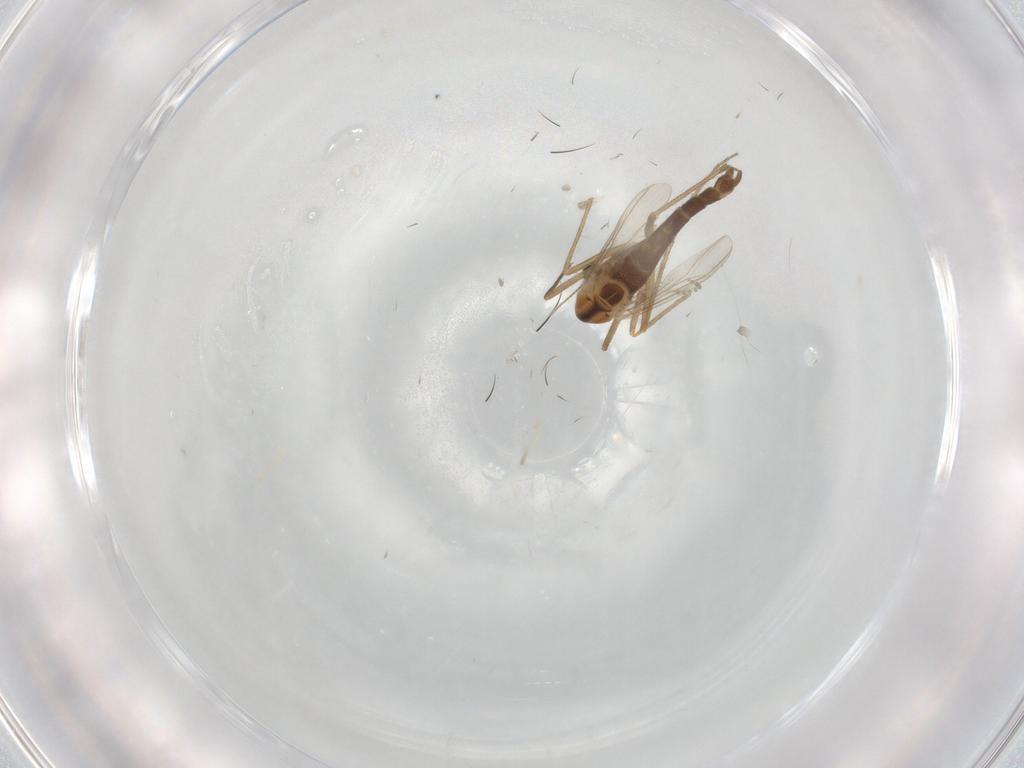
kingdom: Animalia
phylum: Arthropoda
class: Insecta
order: Diptera
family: Chironomidae
